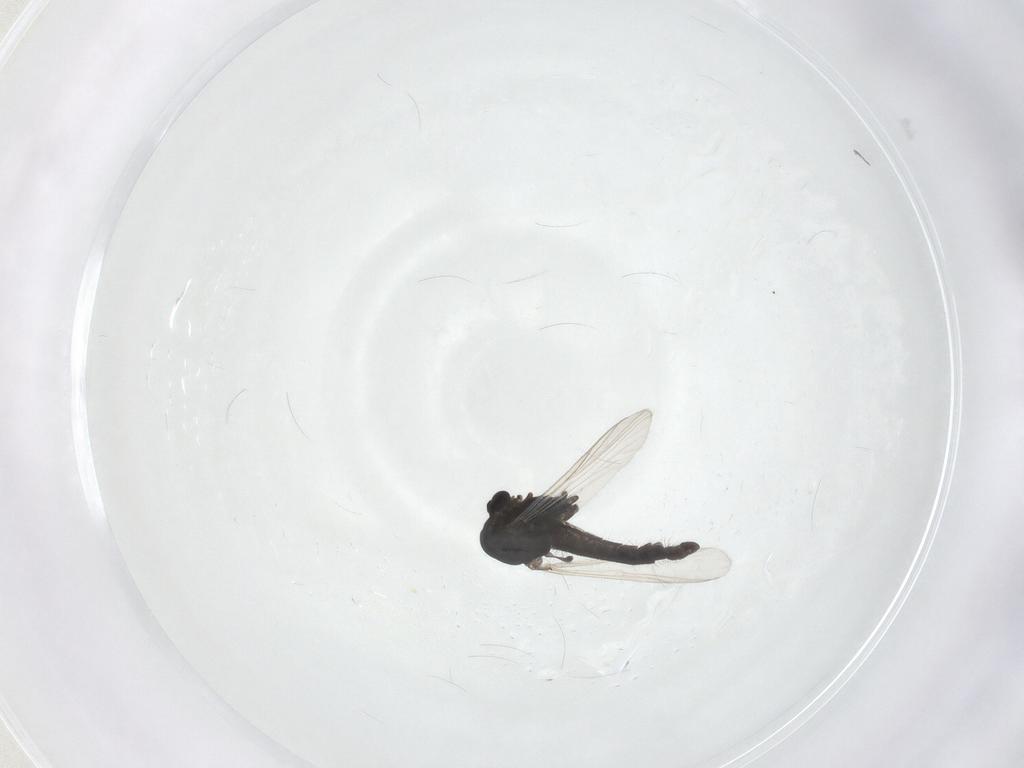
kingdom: Animalia
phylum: Arthropoda
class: Insecta
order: Diptera
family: Chironomidae
